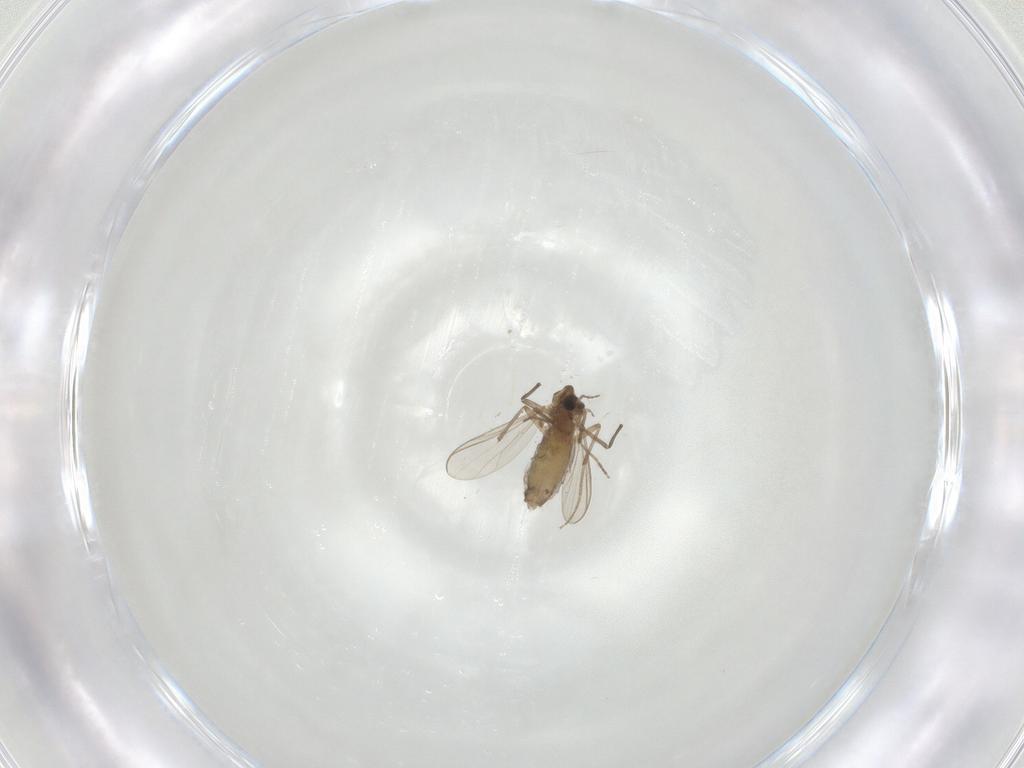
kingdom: Animalia
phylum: Arthropoda
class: Insecta
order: Diptera
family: Chironomidae
